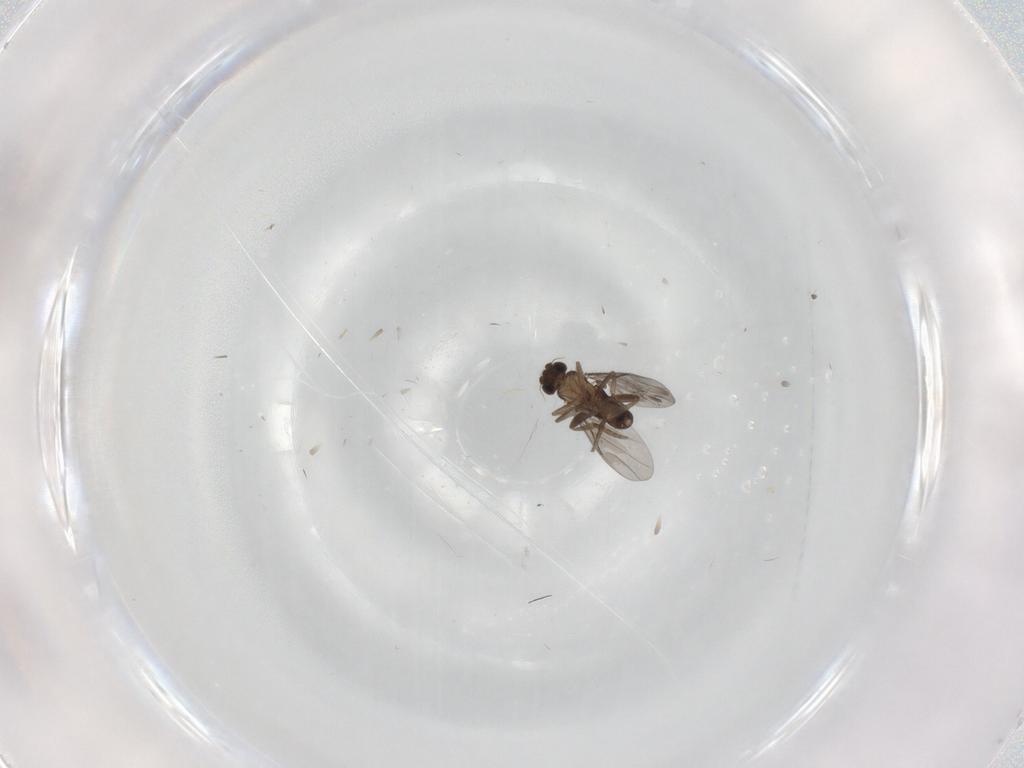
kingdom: Animalia
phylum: Arthropoda
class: Insecta
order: Diptera
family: Phoridae
